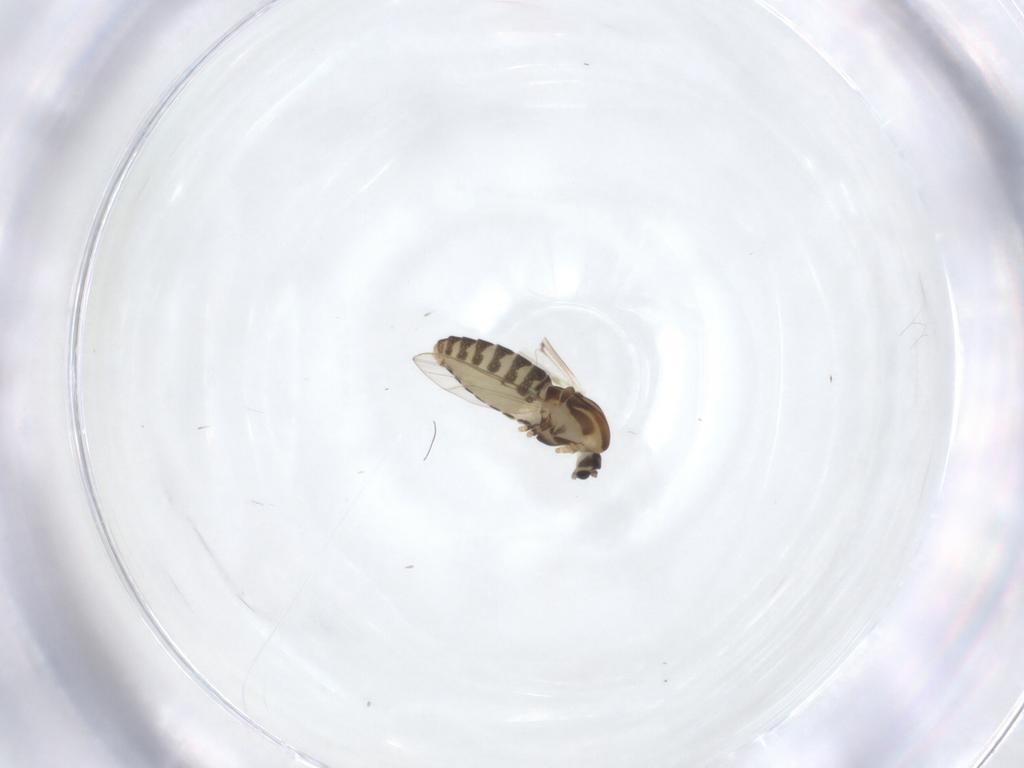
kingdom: Animalia
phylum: Arthropoda
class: Insecta
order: Diptera
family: Chironomidae
